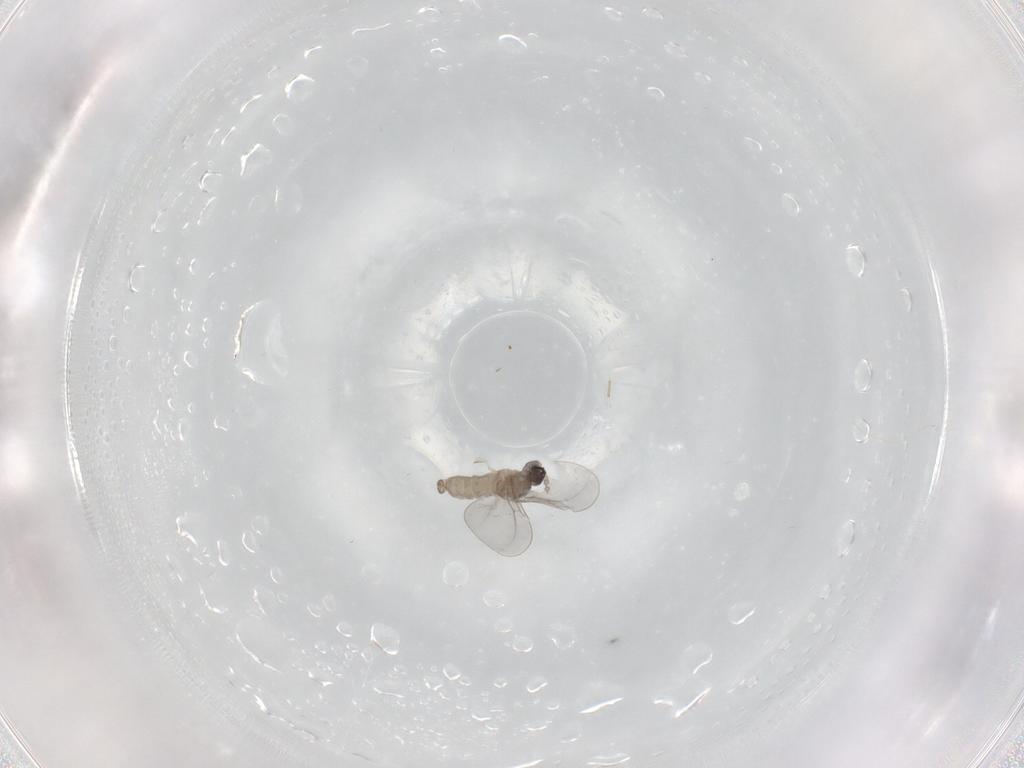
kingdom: Animalia
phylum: Arthropoda
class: Insecta
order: Diptera
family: Cecidomyiidae
